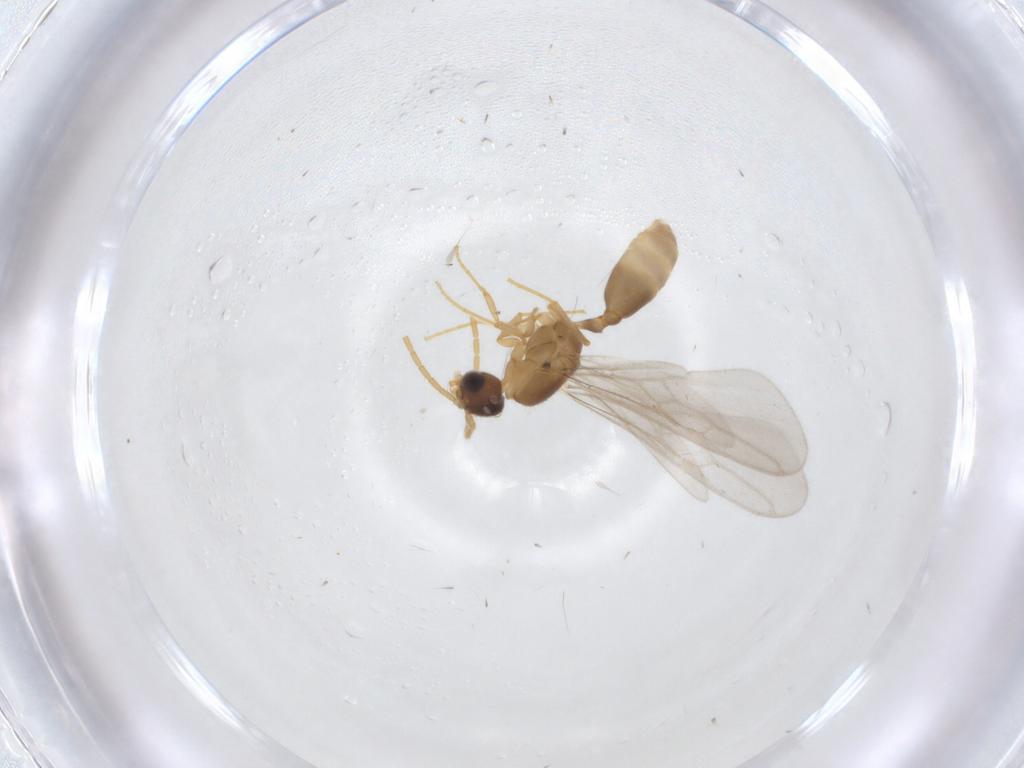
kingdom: Animalia
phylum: Arthropoda
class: Insecta
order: Hymenoptera
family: Formicidae
